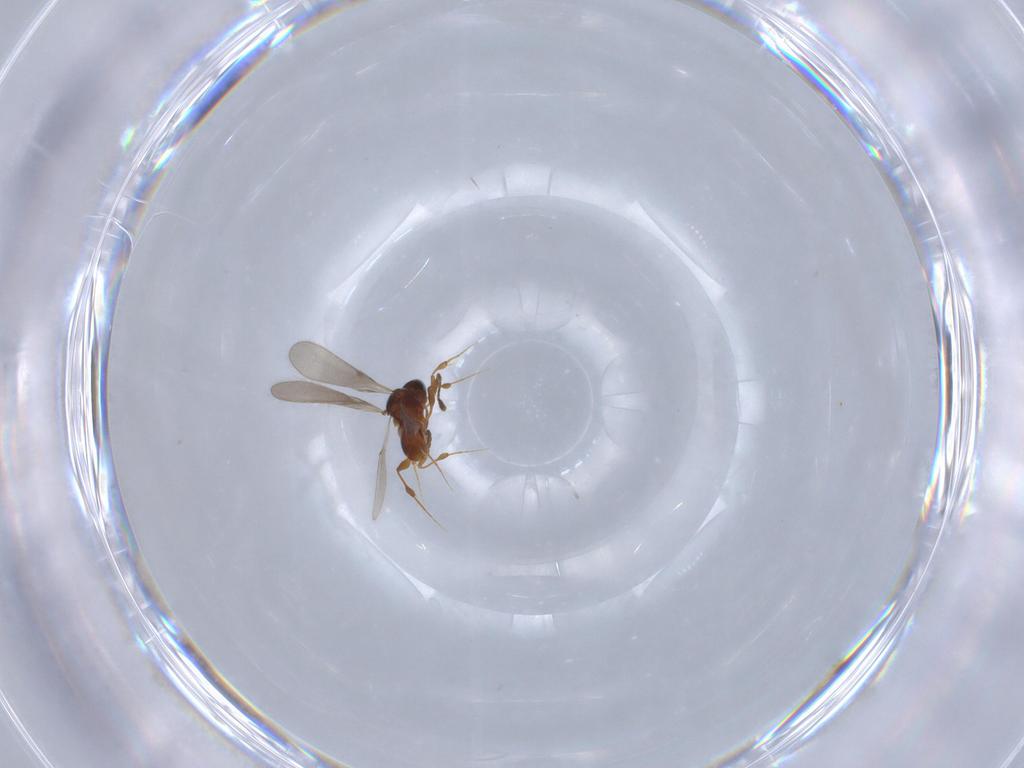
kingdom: Animalia
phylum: Arthropoda
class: Insecta
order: Hymenoptera
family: Platygastridae
